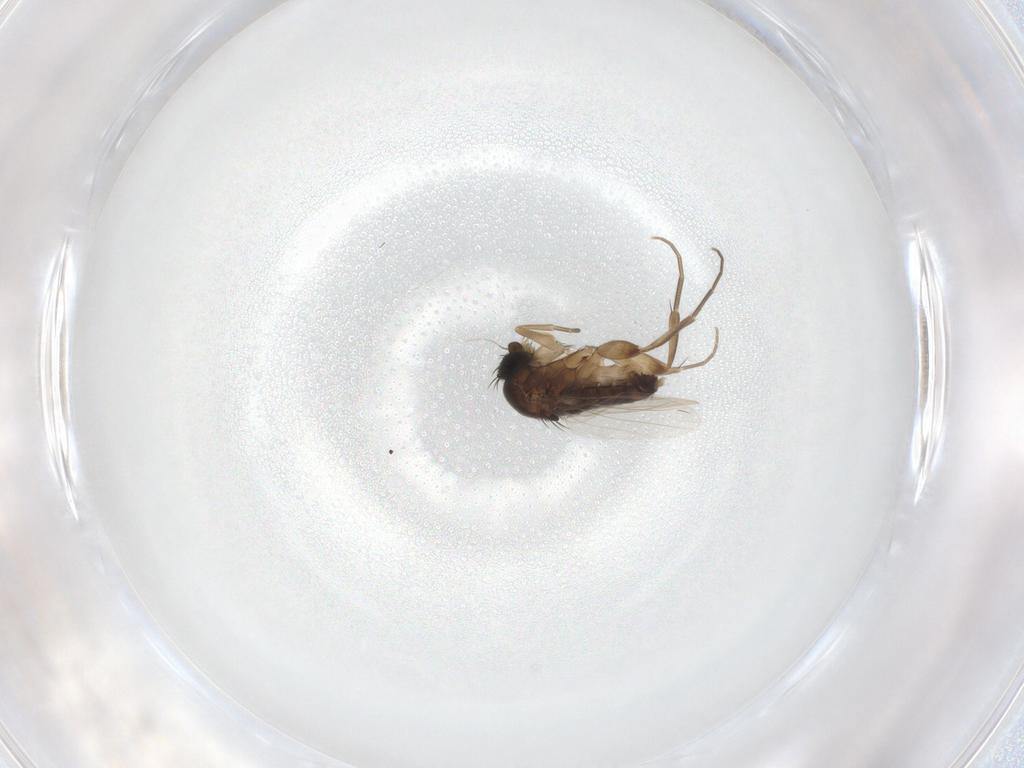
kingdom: Animalia
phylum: Arthropoda
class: Insecta
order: Diptera
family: Phoridae
